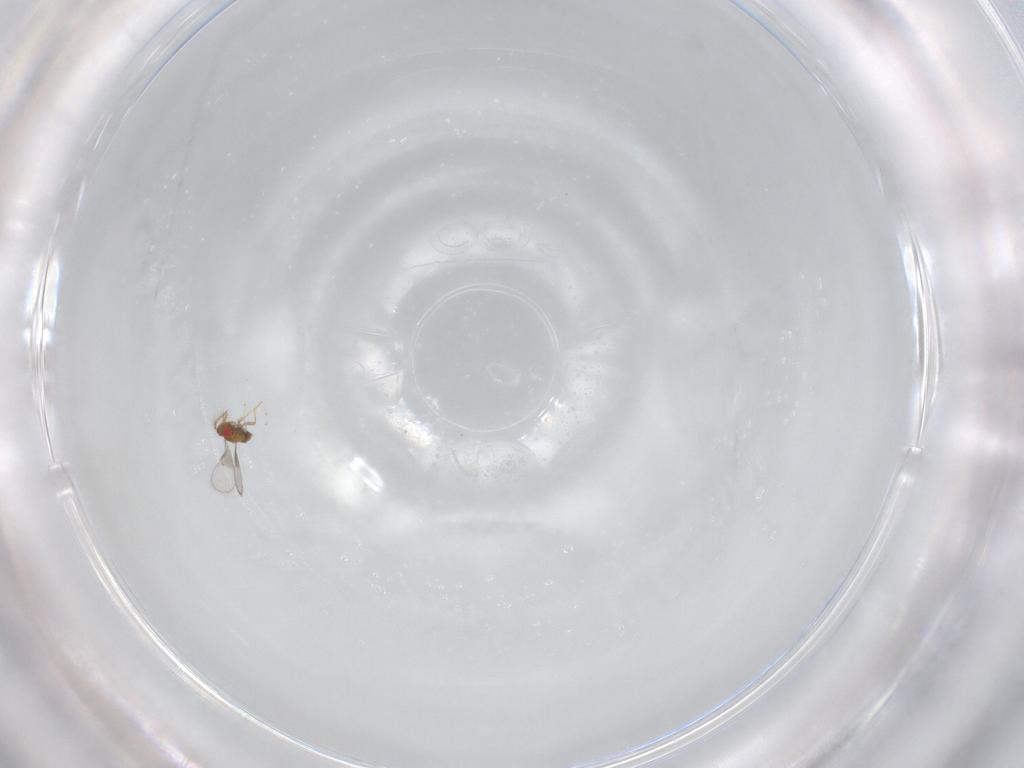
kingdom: Animalia
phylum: Arthropoda
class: Insecta
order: Hymenoptera
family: Trichogrammatidae
